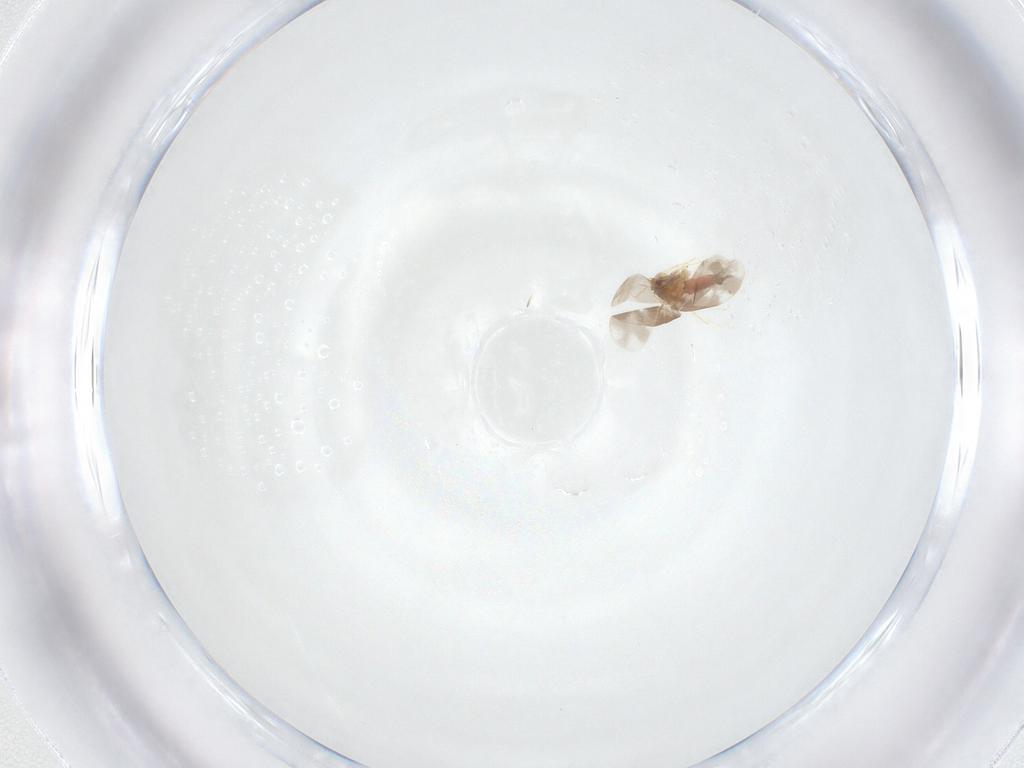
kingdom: Animalia
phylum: Arthropoda
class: Insecta
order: Hemiptera
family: Aleyrodidae
